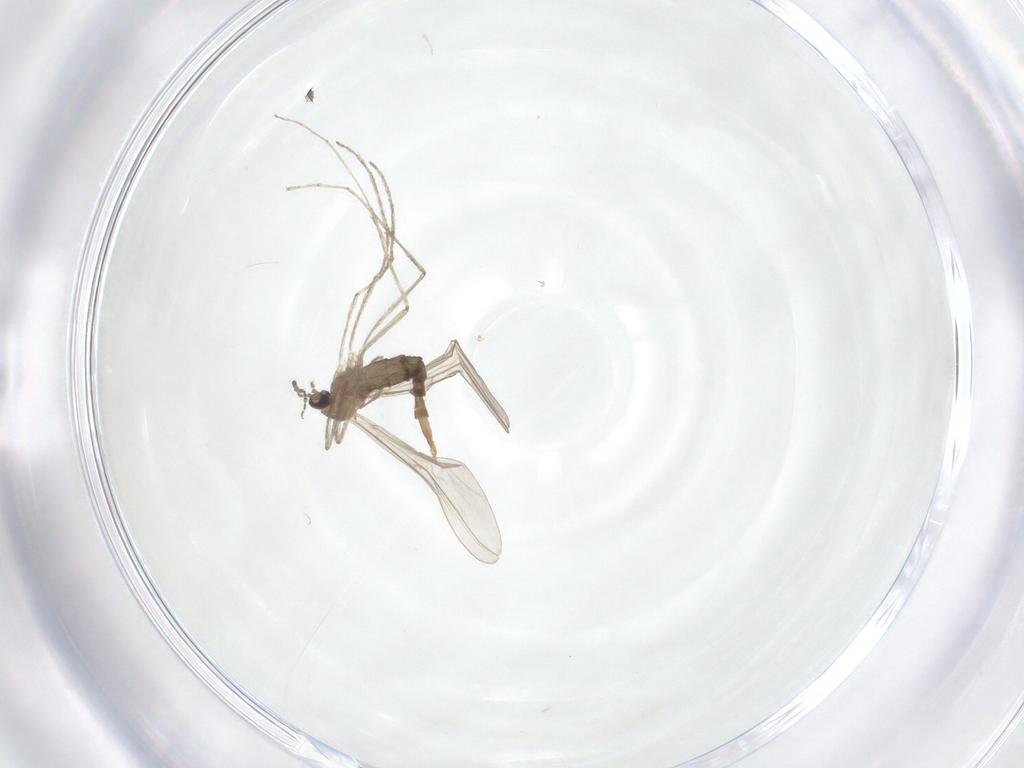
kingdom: Animalia
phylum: Arthropoda
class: Insecta
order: Diptera
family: Cecidomyiidae
